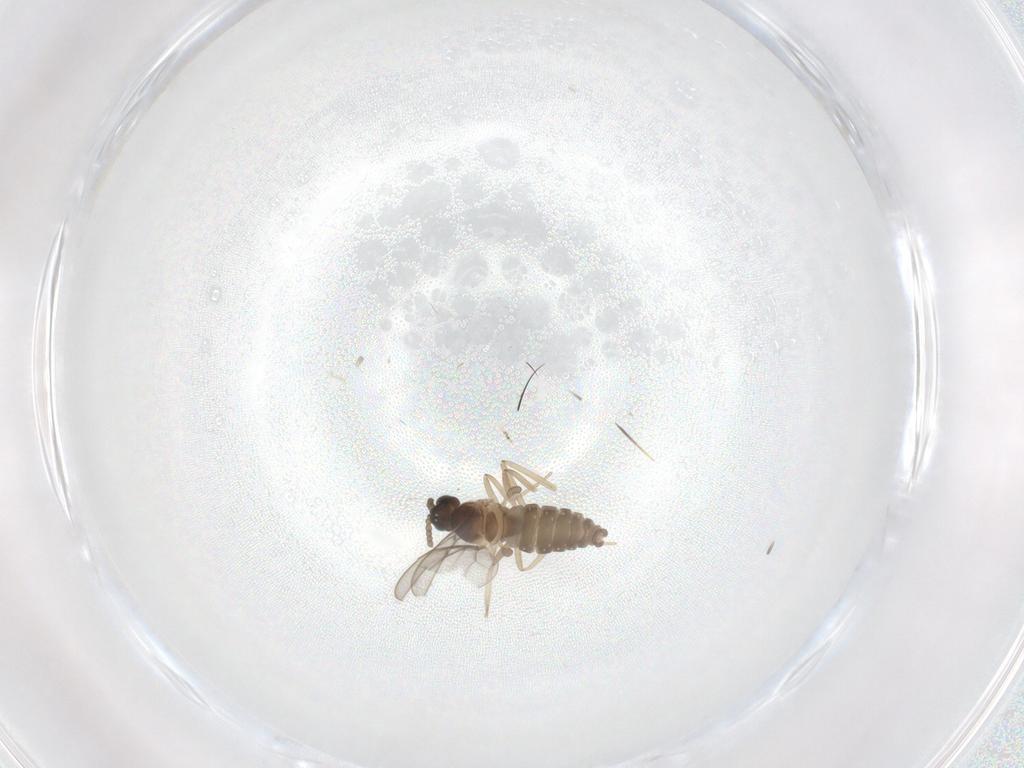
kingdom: Animalia
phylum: Arthropoda
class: Insecta
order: Diptera
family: Cecidomyiidae
